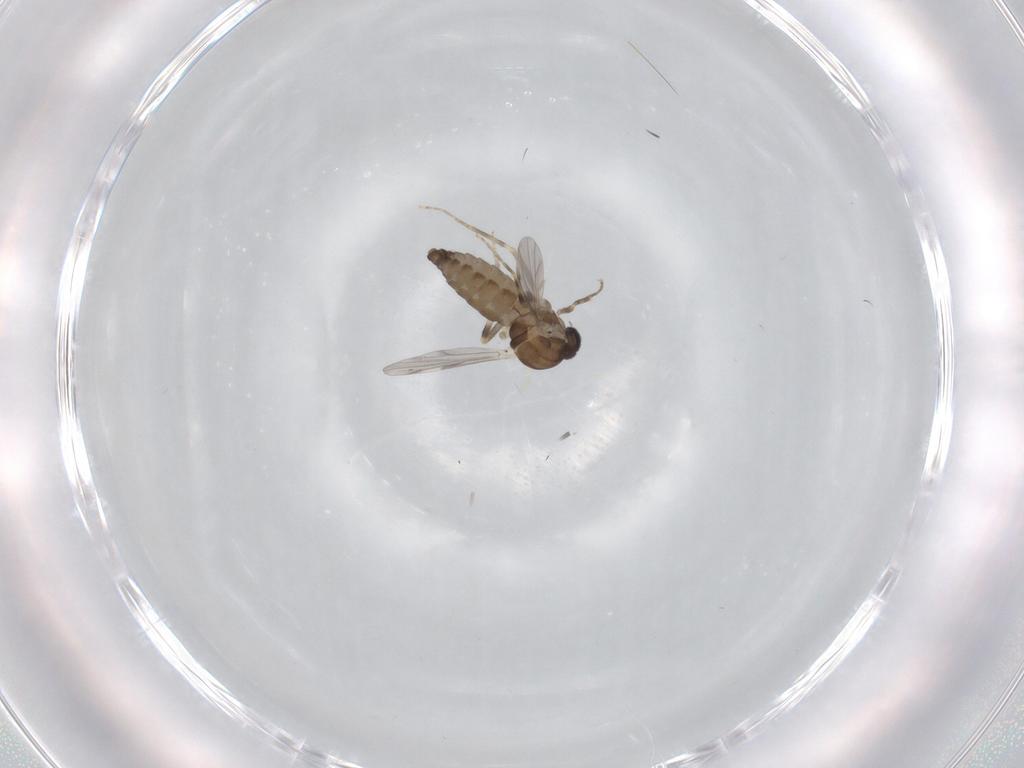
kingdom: Animalia
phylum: Arthropoda
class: Insecta
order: Diptera
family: Ceratopogonidae
